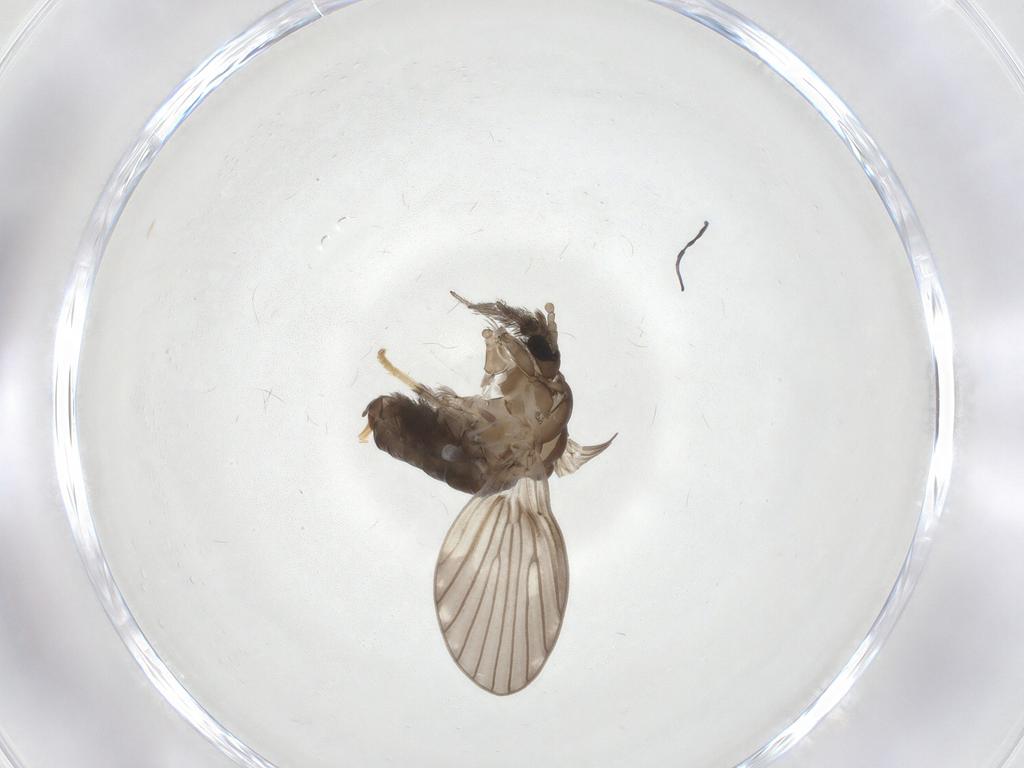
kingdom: Animalia
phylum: Arthropoda
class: Insecta
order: Diptera
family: Psychodidae
